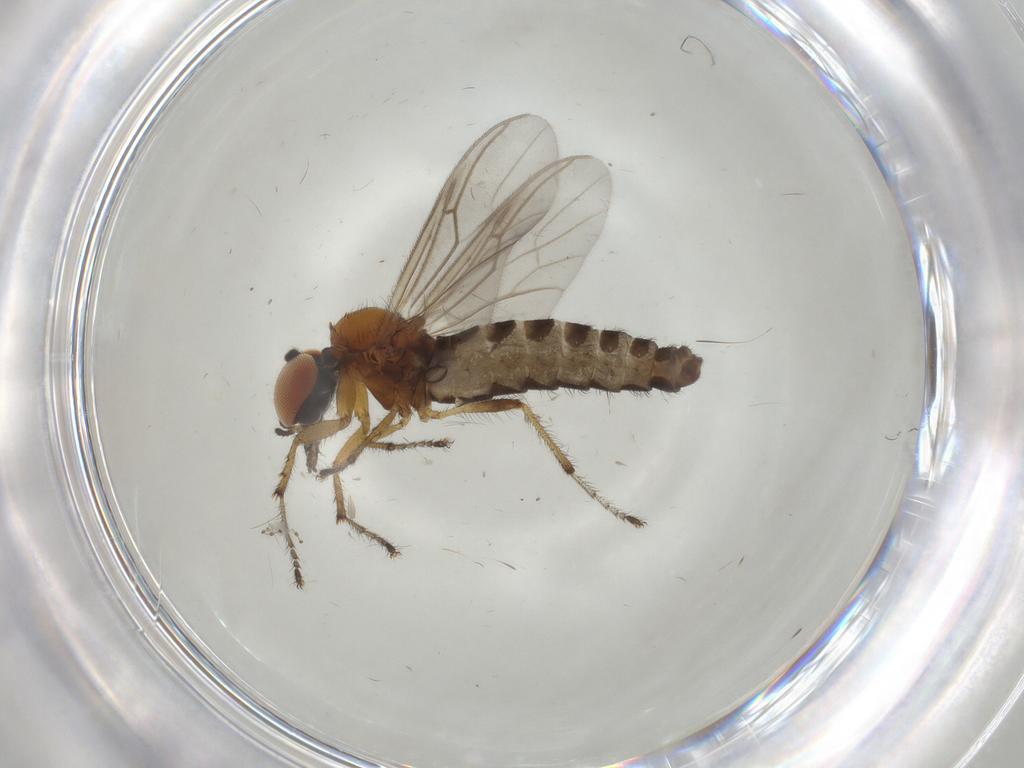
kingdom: Animalia
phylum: Arthropoda
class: Insecta
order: Diptera
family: Bibionidae
